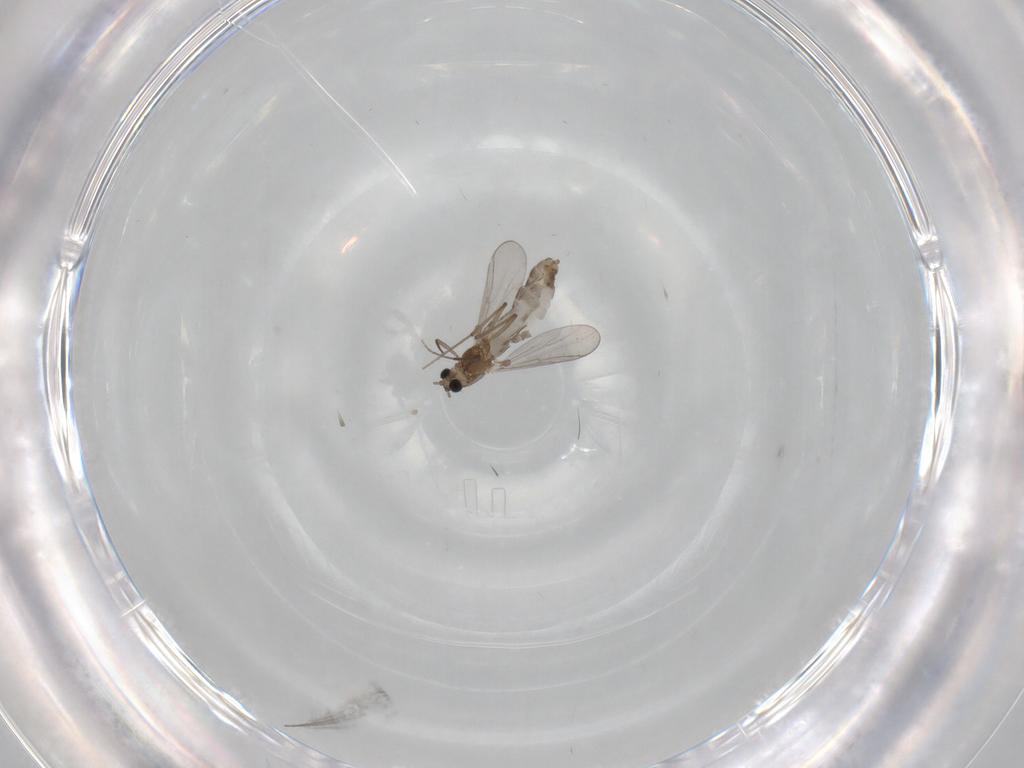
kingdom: Animalia
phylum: Arthropoda
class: Insecta
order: Diptera
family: Chironomidae
